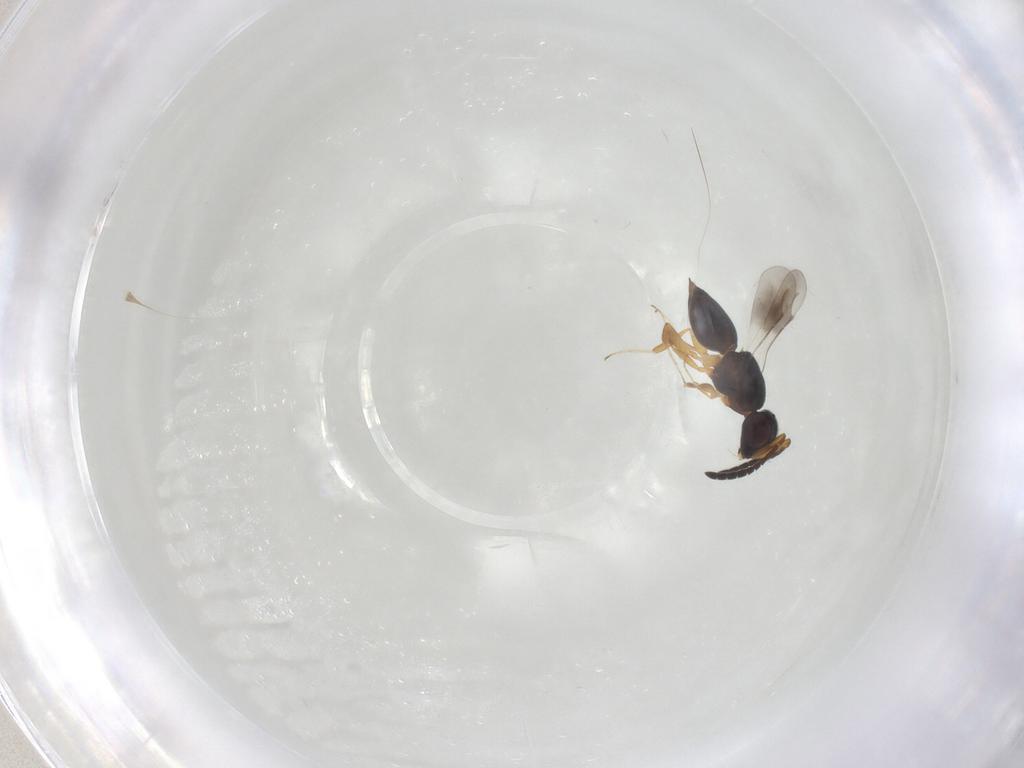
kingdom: Animalia
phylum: Arthropoda
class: Insecta
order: Hymenoptera
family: Ceraphronidae
